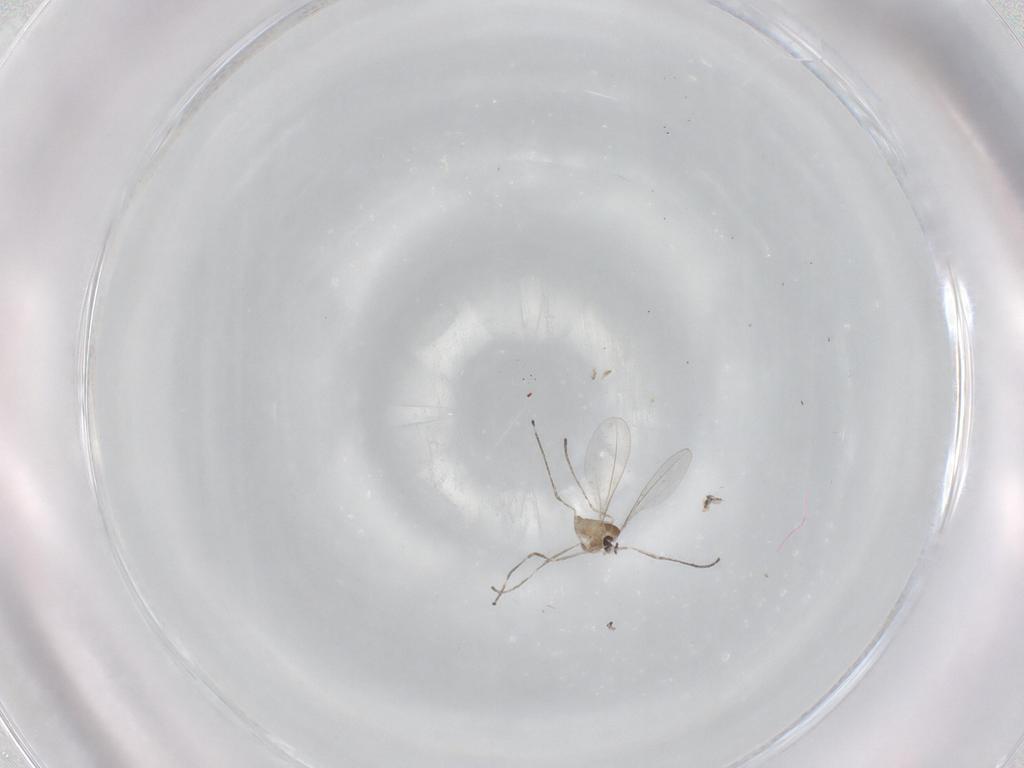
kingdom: Animalia
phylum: Arthropoda
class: Insecta
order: Diptera
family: Cecidomyiidae
